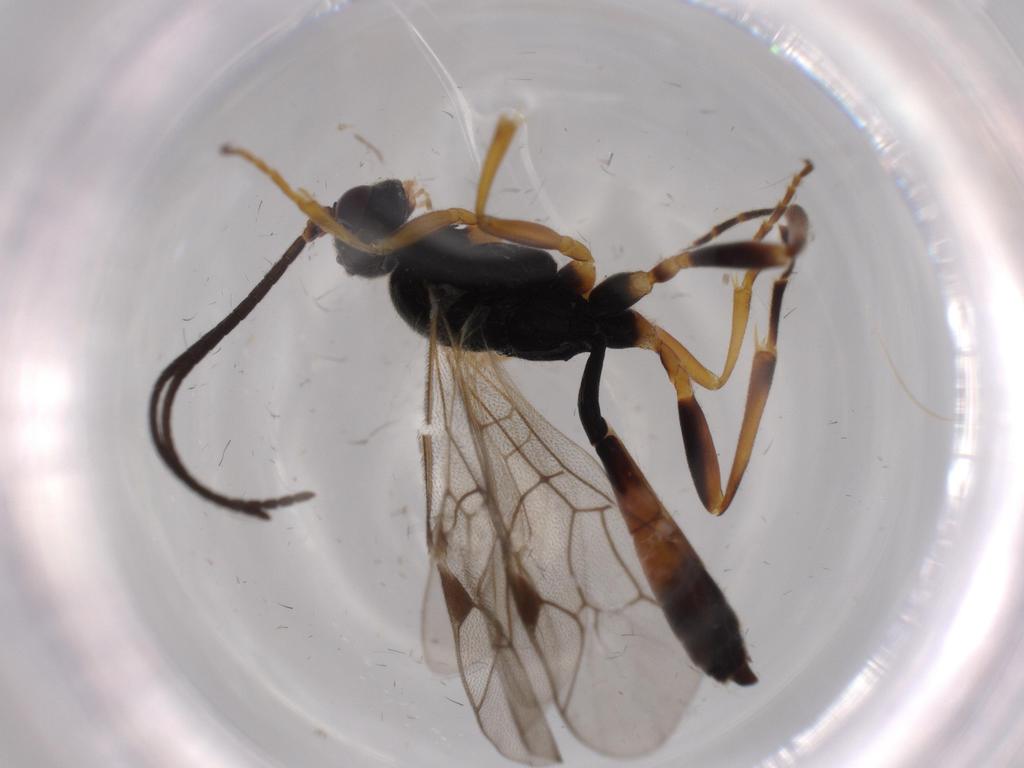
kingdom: Animalia
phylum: Arthropoda
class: Insecta
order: Hymenoptera
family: Ichneumonidae
